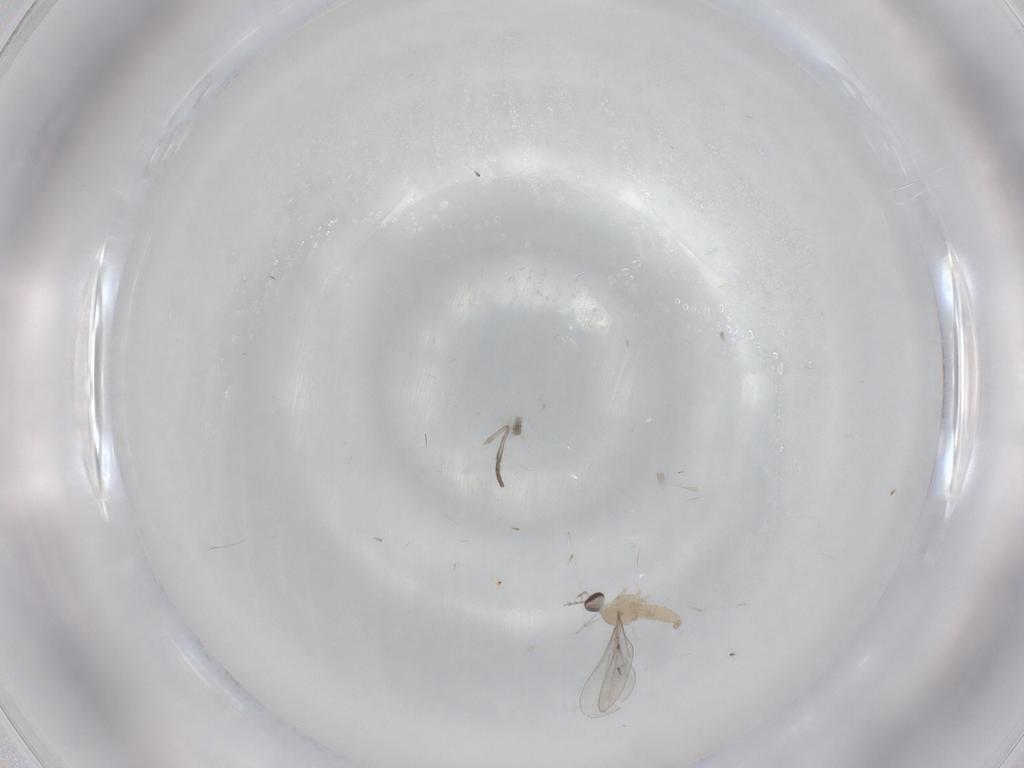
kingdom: Animalia
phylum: Arthropoda
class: Insecta
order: Diptera
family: Cecidomyiidae
